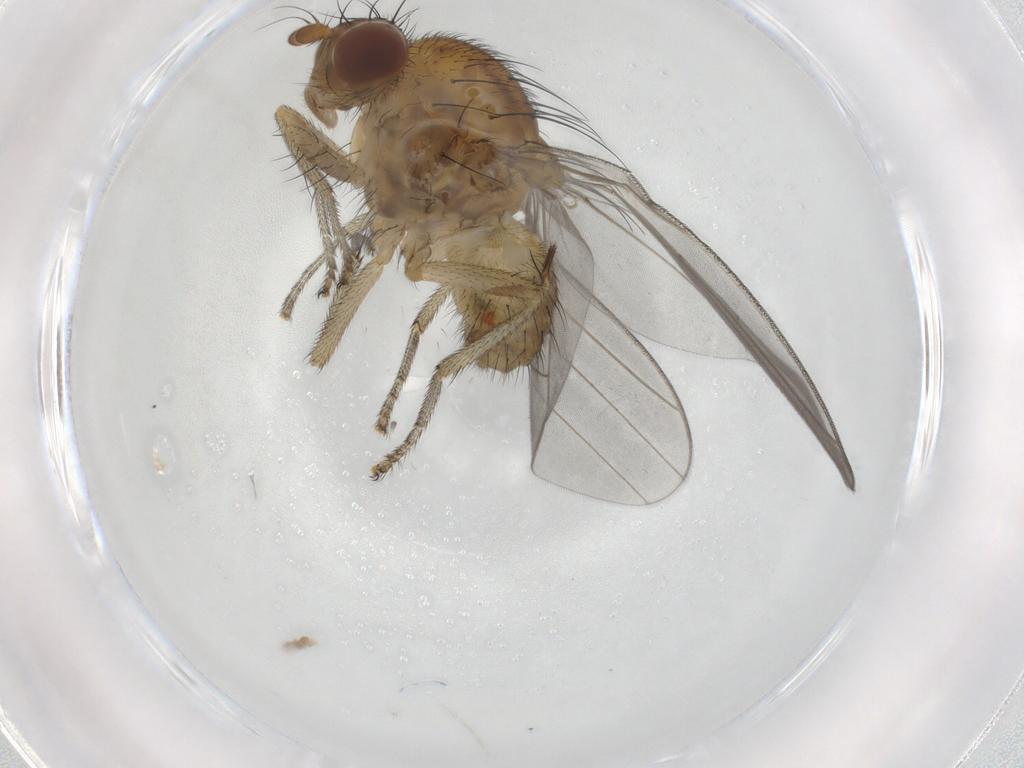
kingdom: Animalia
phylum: Arthropoda
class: Insecta
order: Diptera
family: Lauxaniidae
